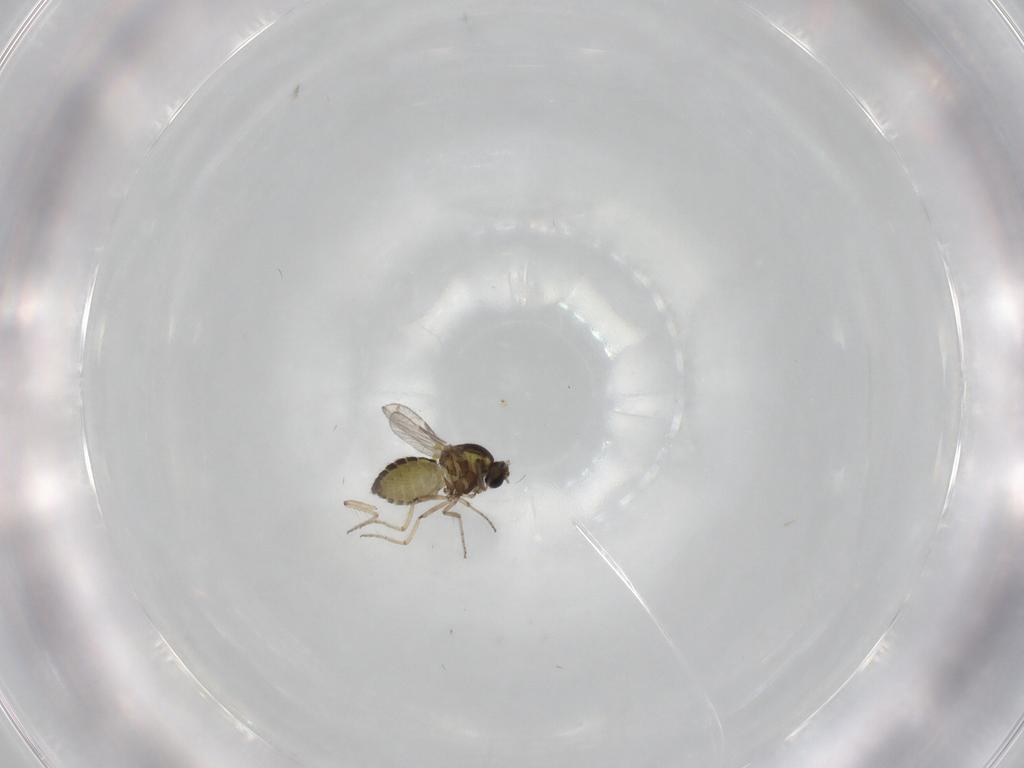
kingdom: Animalia
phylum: Arthropoda
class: Insecta
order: Diptera
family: Ceratopogonidae
